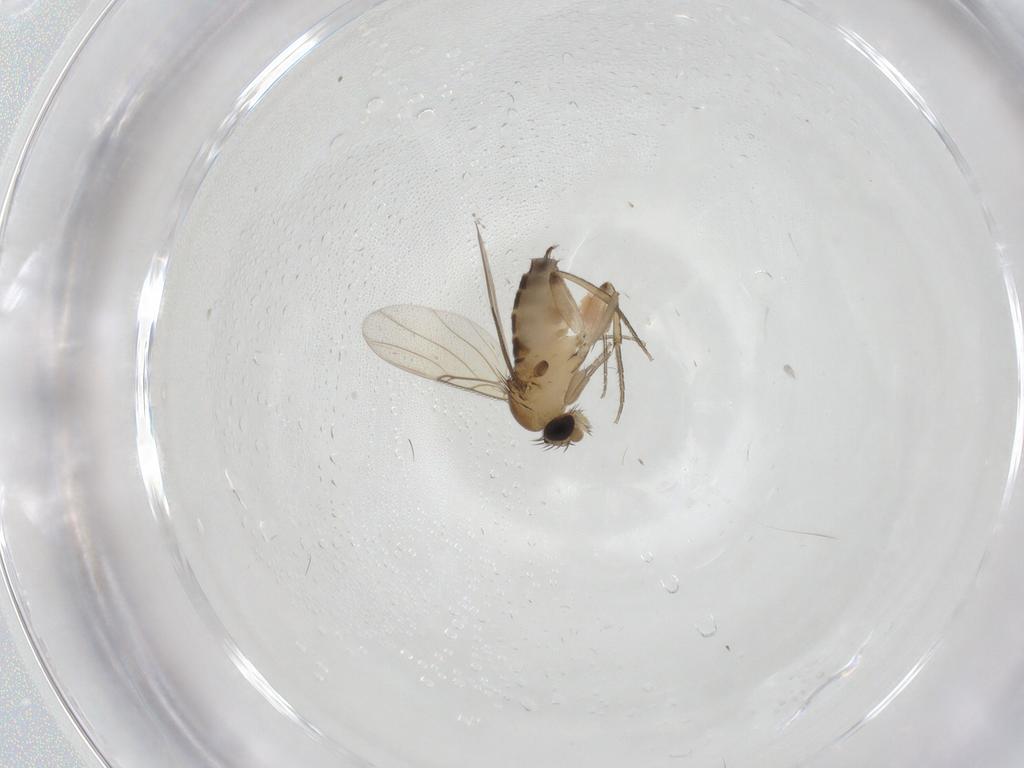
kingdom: Animalia
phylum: Arthropoda
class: Insecta
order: Diptera
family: Phoridae
